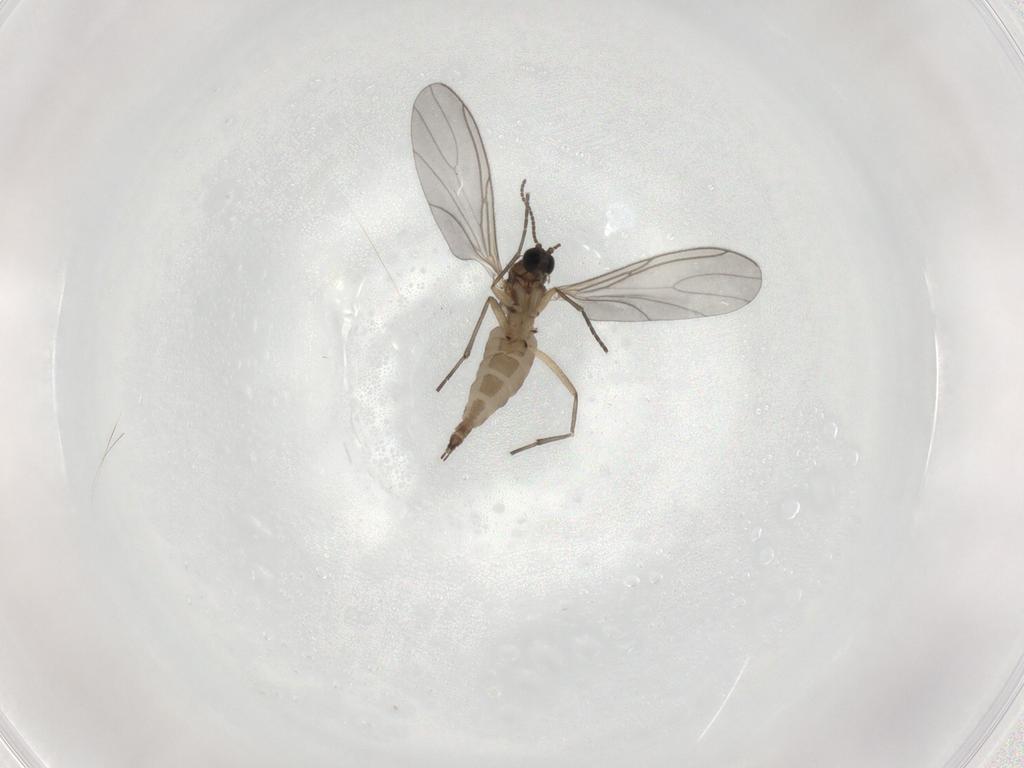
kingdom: Animalia
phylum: Arthropoda
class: Insecta
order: Diptera
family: Sciaridae
